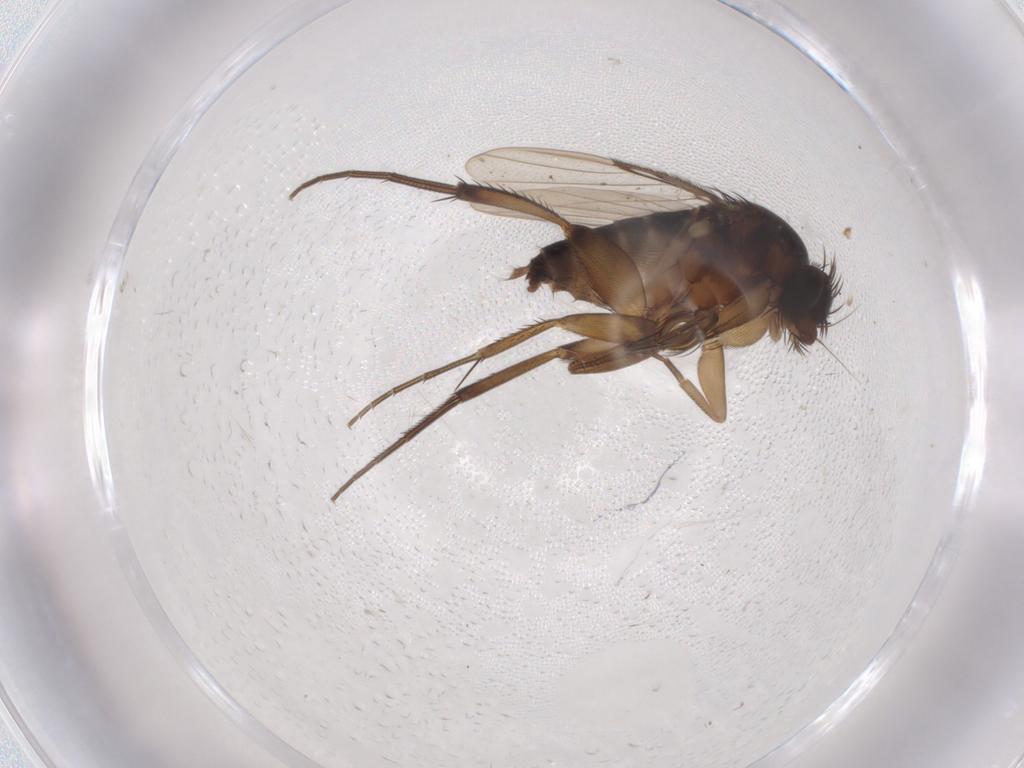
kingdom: Animalia
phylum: Arthropoda
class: Insecta
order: Diptera
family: Phoridae
